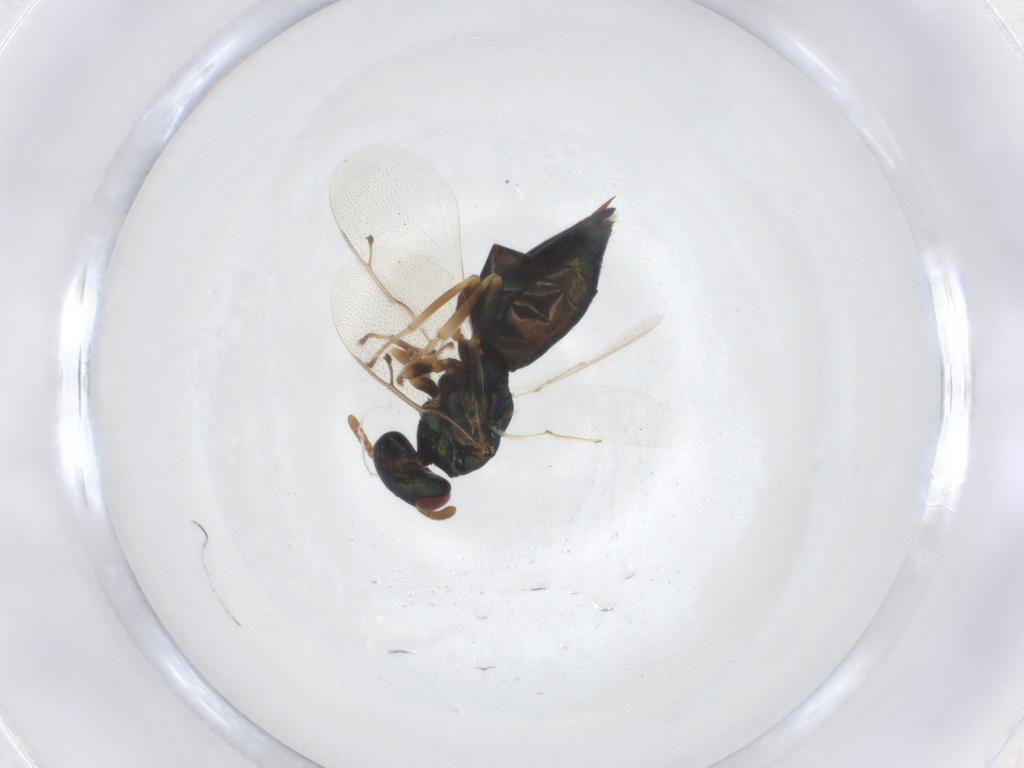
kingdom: Animalia
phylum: Arthropoda
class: Insecta
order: Hymenoptera
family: Pteromalidae
